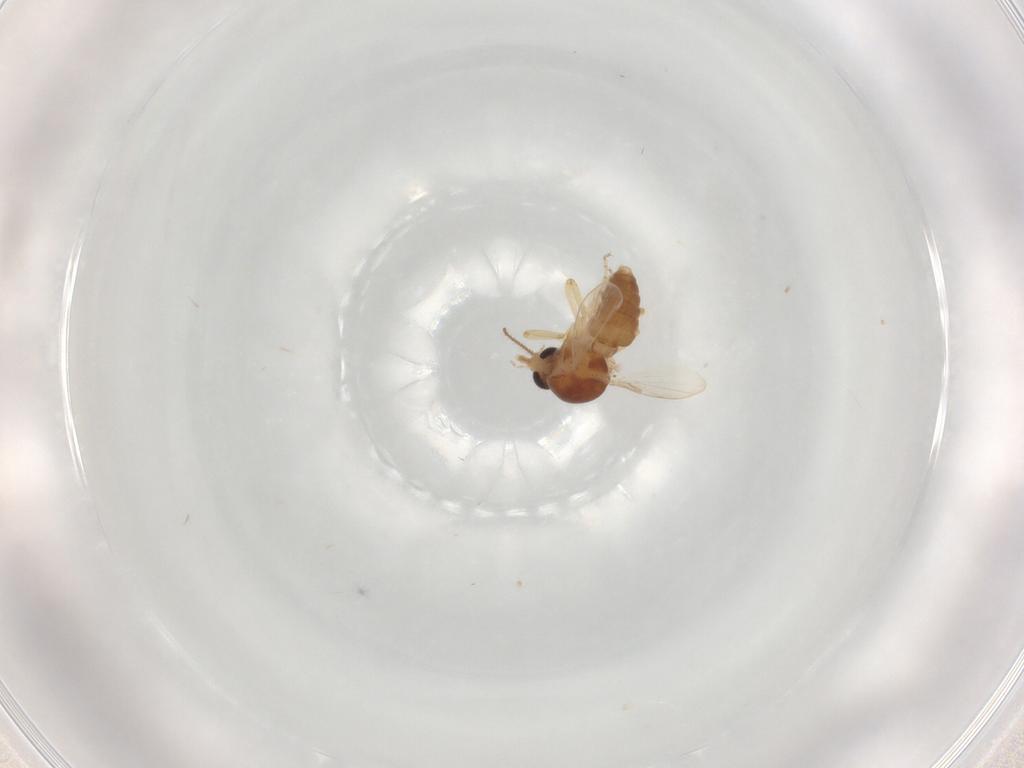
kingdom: Animalia
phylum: Arthropoda
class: Insecta
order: Diptera
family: Ceratopogonidae
